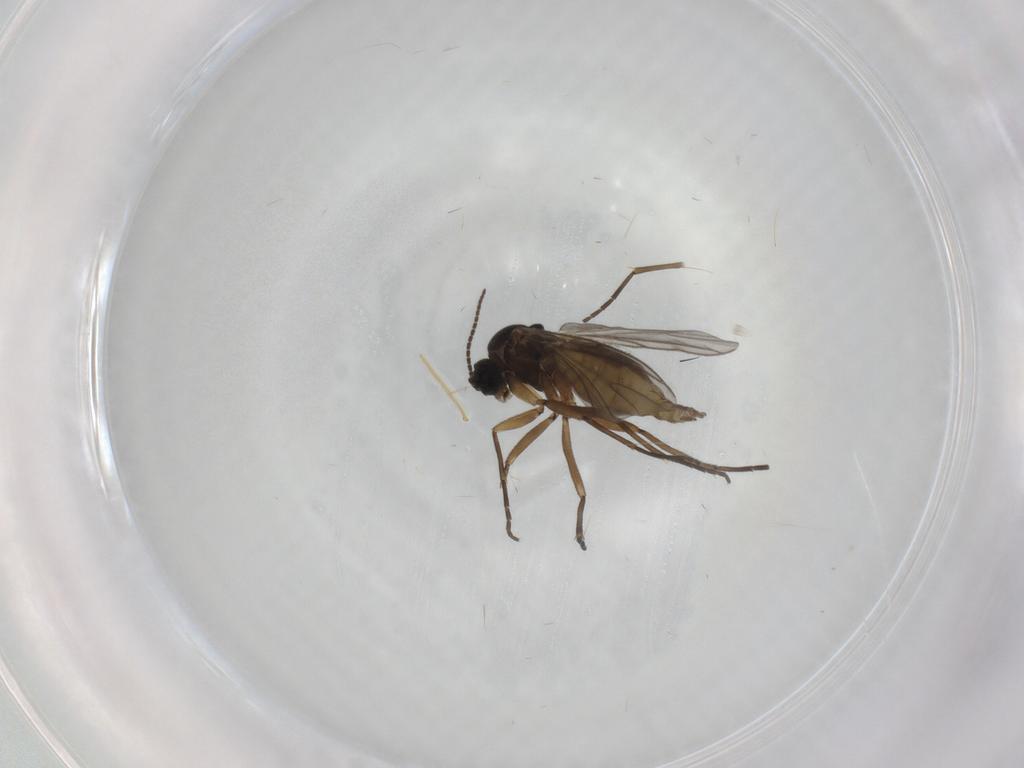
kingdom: Animalia
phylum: Arthropoda
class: Insecta
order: Diptera
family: Sciaridae
